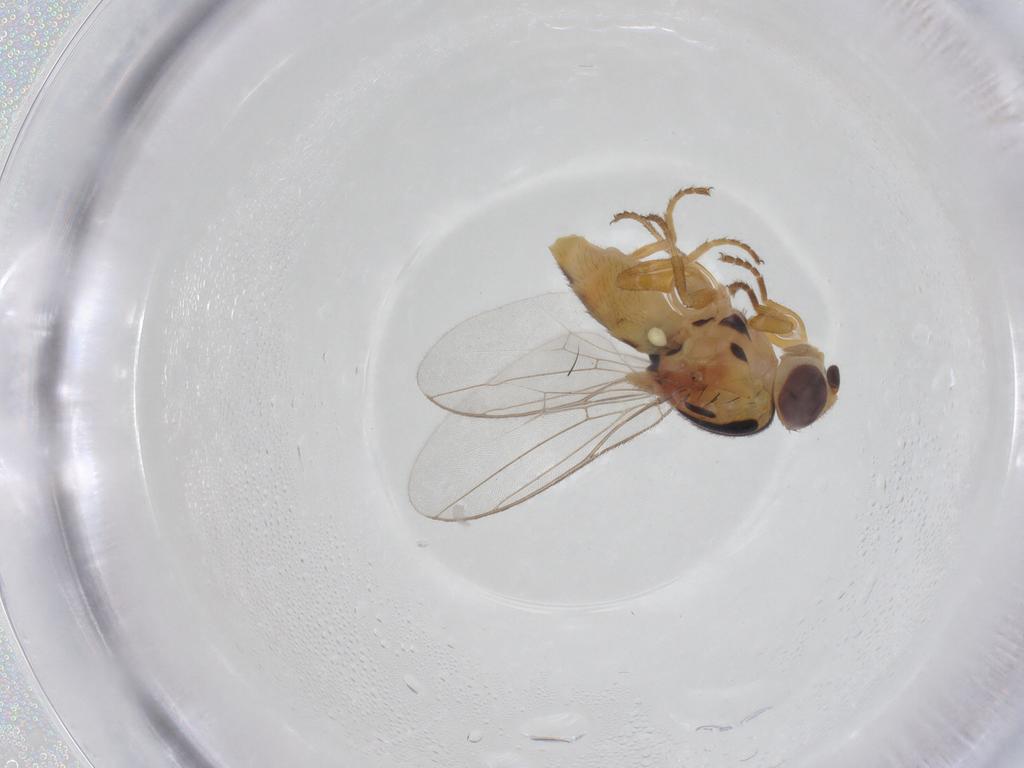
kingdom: Animalia
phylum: Arthropoda
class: Insecta
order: Diptera
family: Chloropidae
